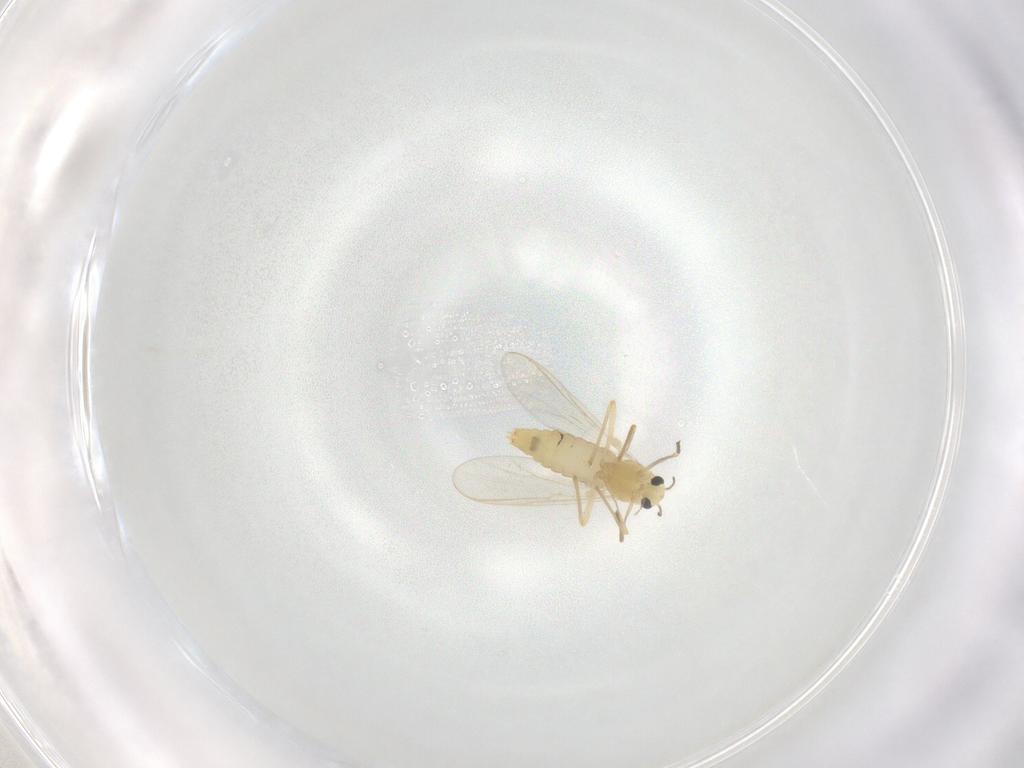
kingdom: Animalia
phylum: Arthropoda
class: Insecta
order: Diptera
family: Chironomidae
